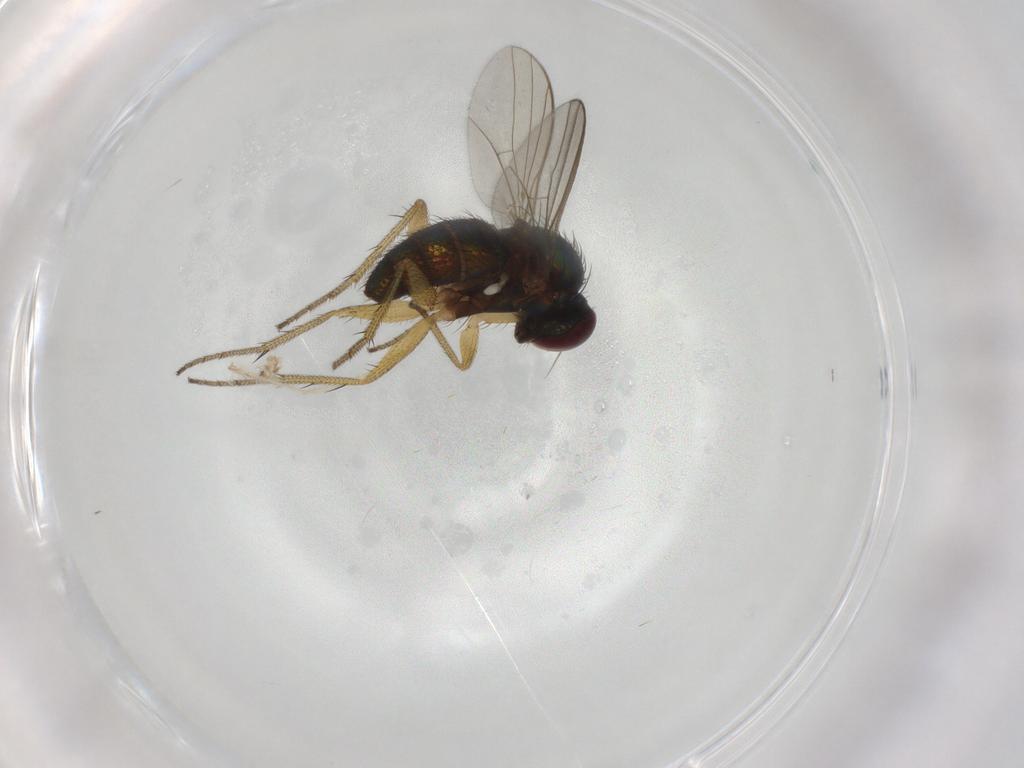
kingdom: Animalia
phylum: Arthropoda
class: Insecta
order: Diptera
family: Dolichopodidae
